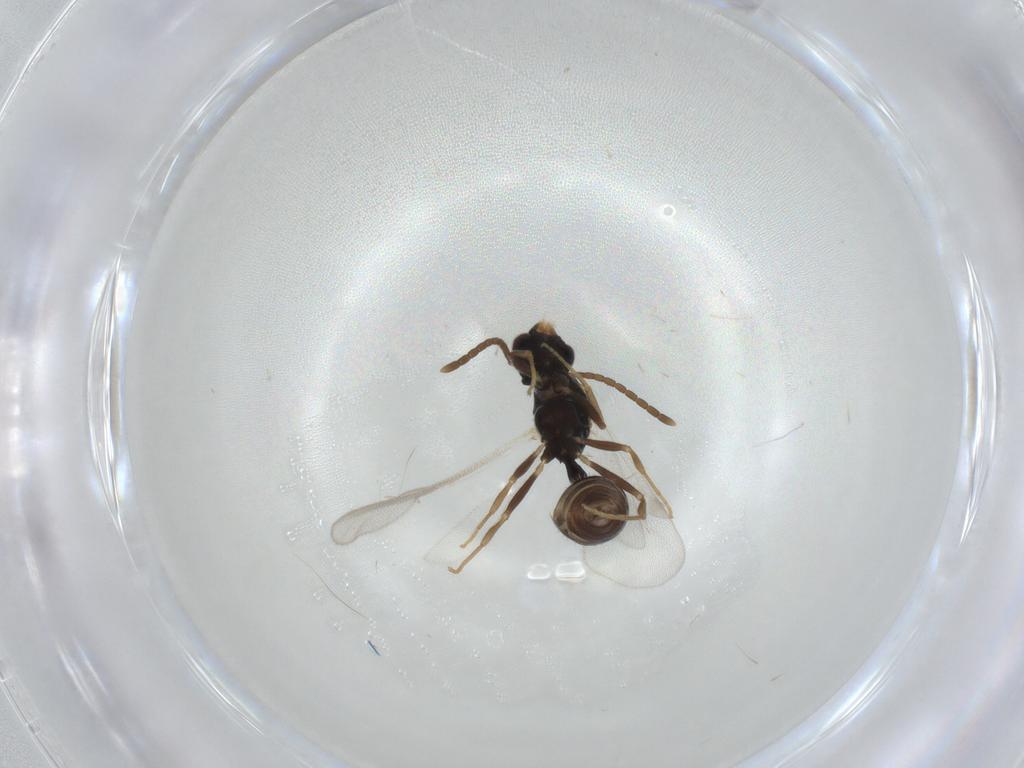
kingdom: Animalia
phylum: Arthropoda
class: Insecta
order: Hymenoptera
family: Formicidae
